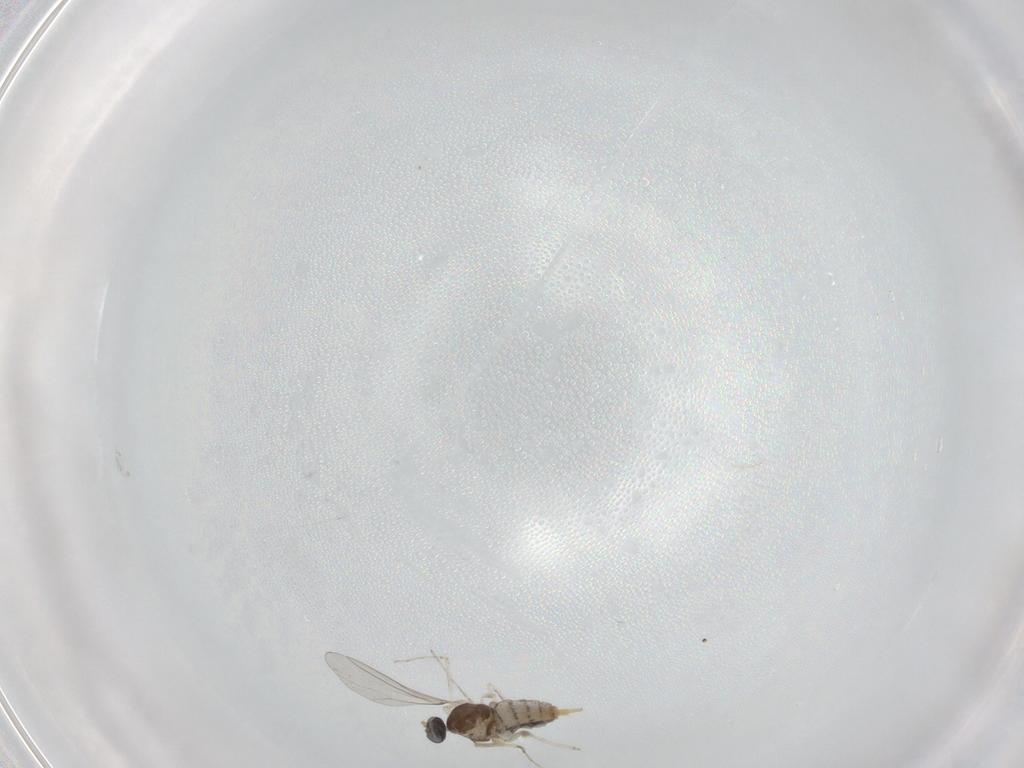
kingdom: Animalia
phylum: Arthropoda
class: Insecta
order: Diptera
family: Cecidomyiidae
